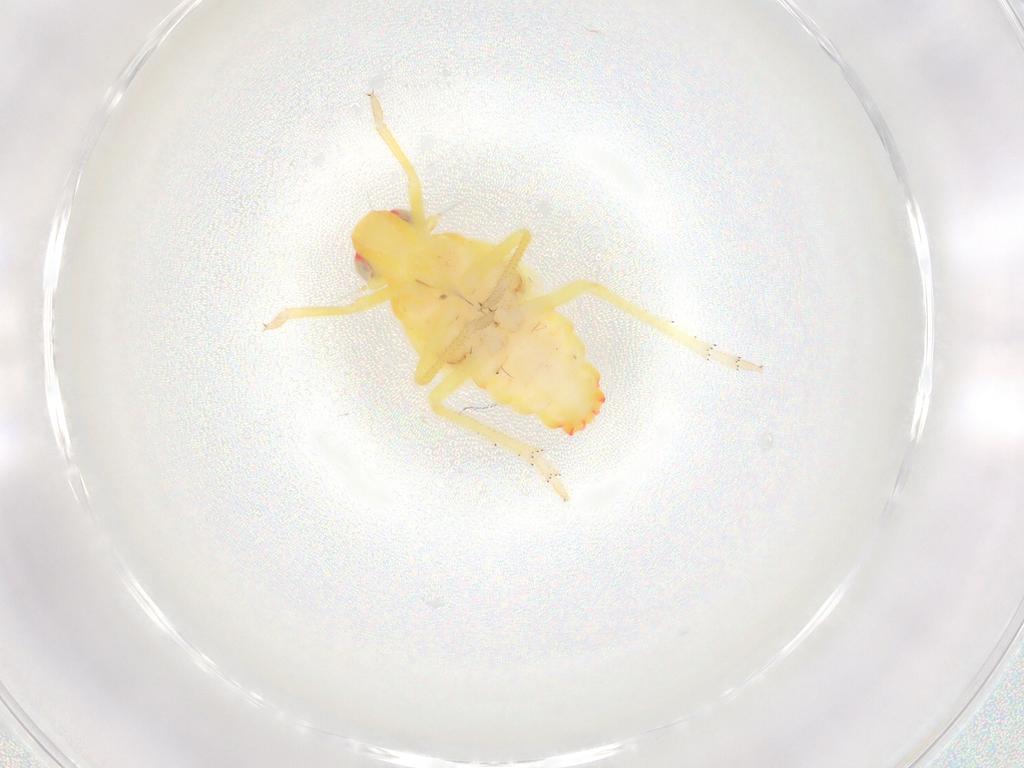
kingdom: Animalia
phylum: Arthropoda
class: Insecta
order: Hemiptera
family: Tropiduchidae
